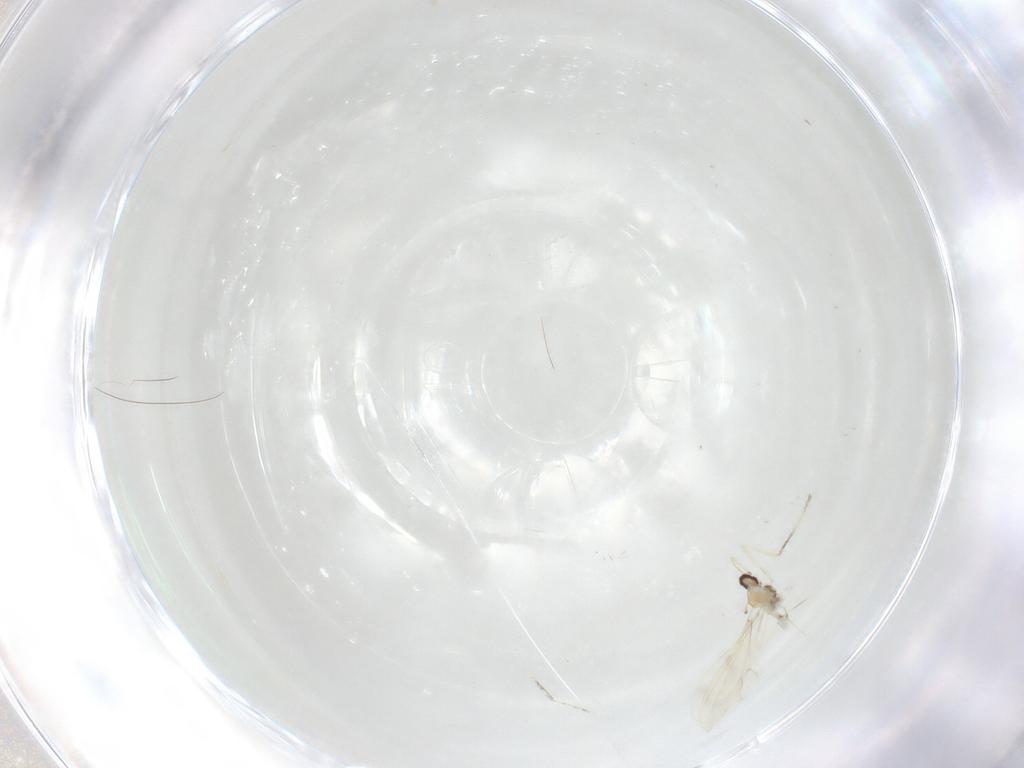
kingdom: Animalia
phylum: Arthropoda
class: Insecta
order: Diptera
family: Cecidomyiidae
